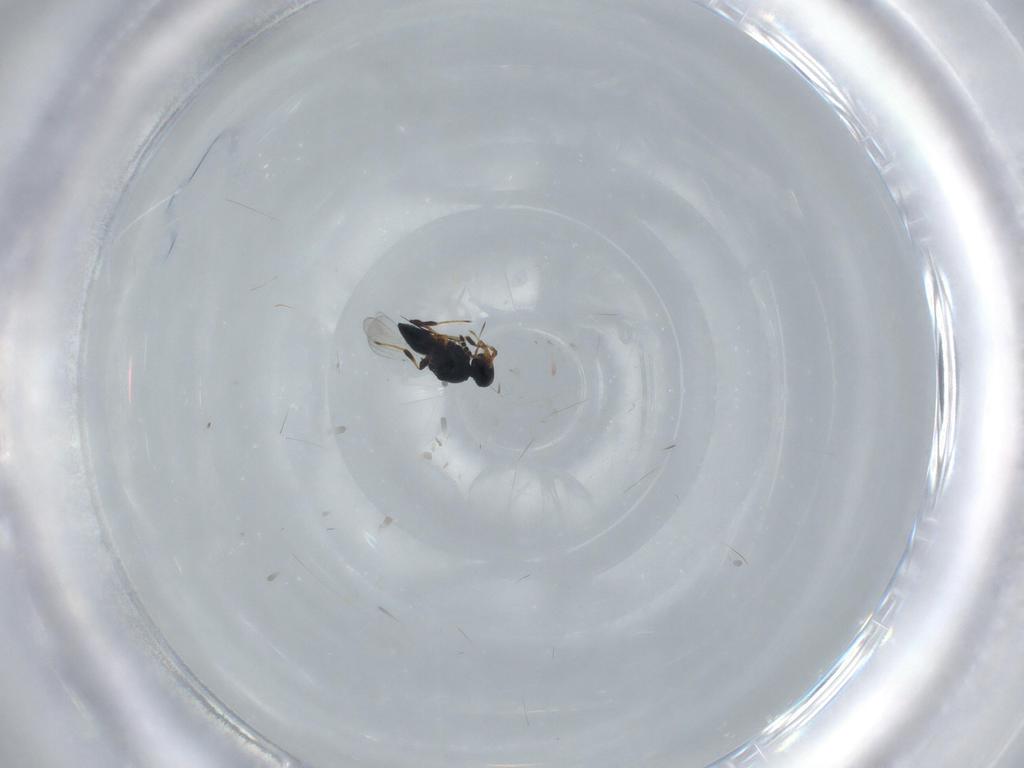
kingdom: Animalia
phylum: Arthropoda
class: Insecta
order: Hymenoptera
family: Platygastridae
